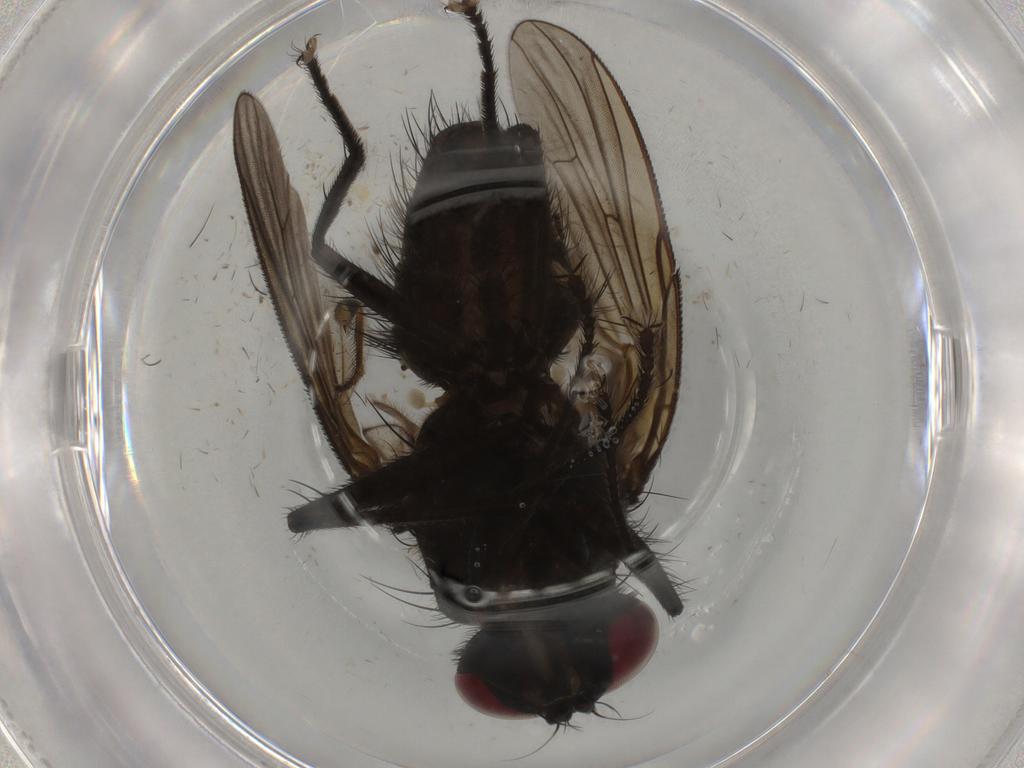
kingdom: Animalia
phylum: Arthropoda
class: Insecta
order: Diptera
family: Muscidae
